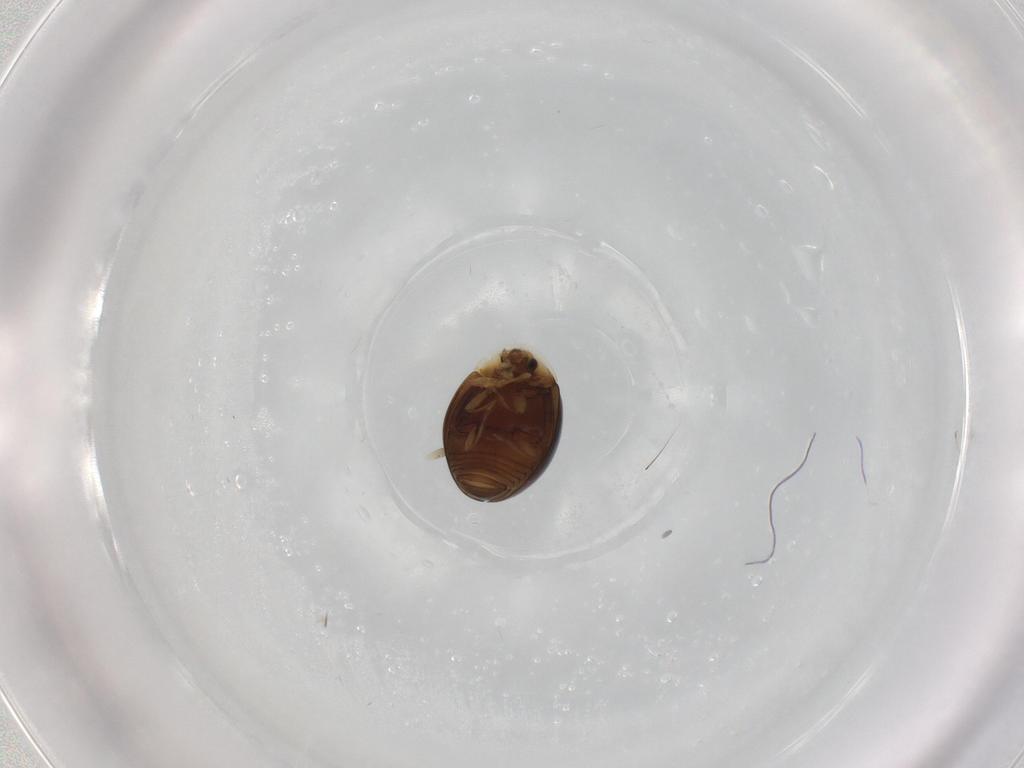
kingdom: Animalia
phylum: Arthropoda
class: Insecta
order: Coleoptera
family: Corylophidae
